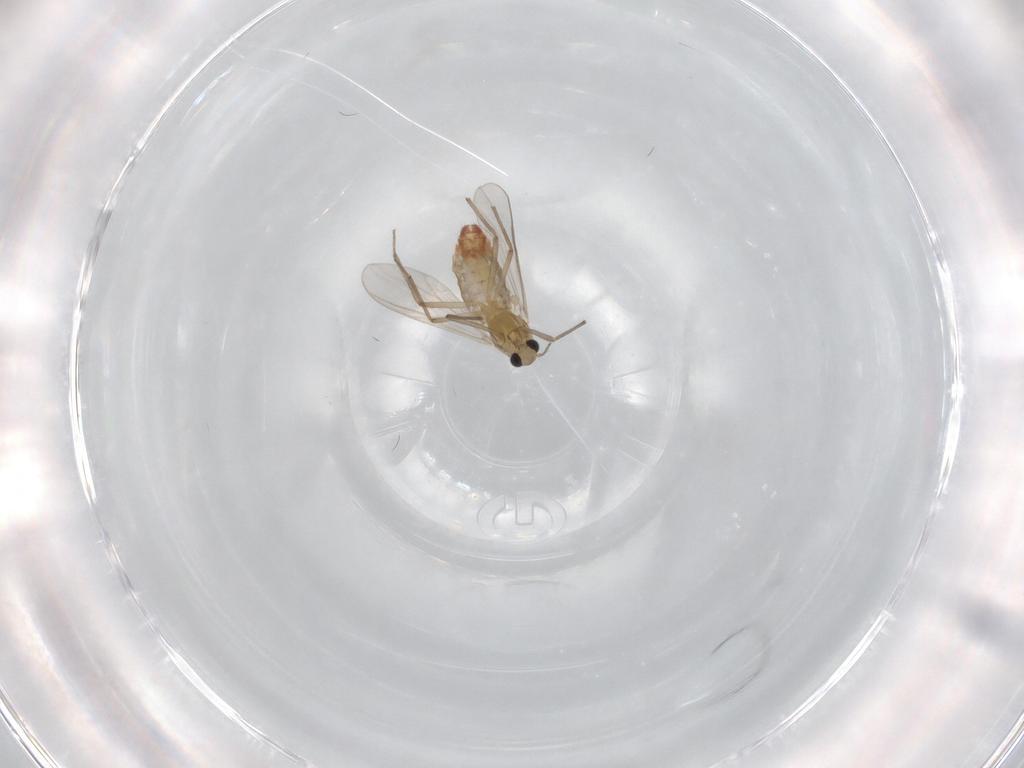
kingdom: Animalia
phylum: Arthropoda
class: Insecta
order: Diptera
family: Chironomidae
